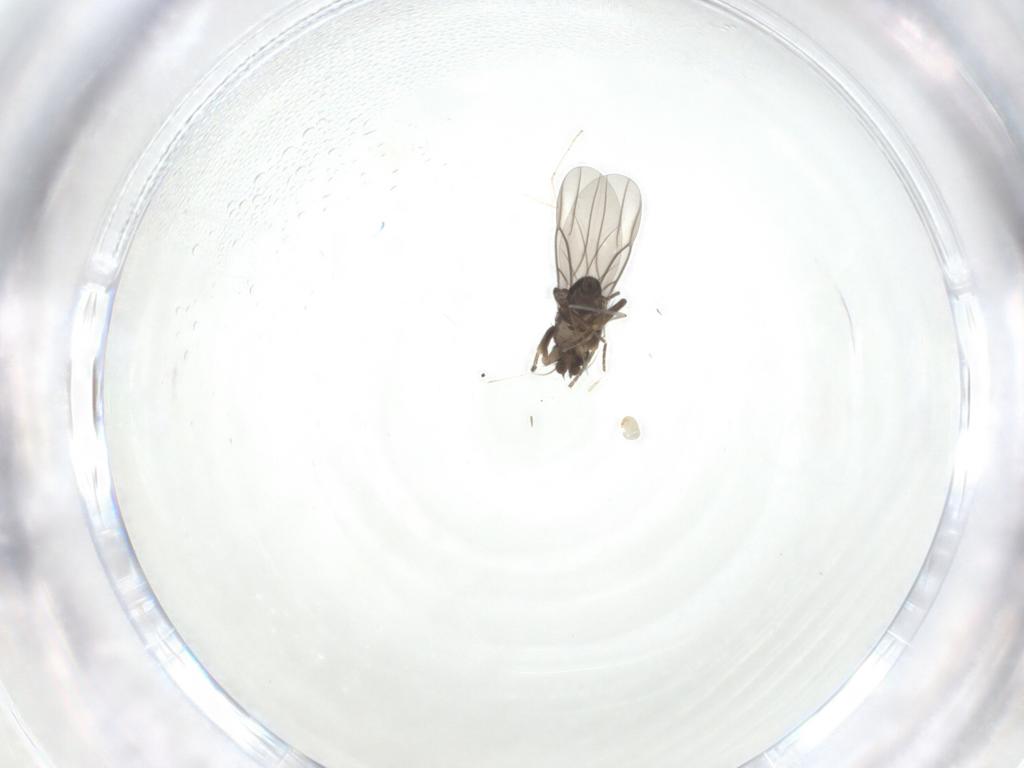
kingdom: Animalia
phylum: Arthropoda
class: Insecta
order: Diptera
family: Cecidomyiidae
